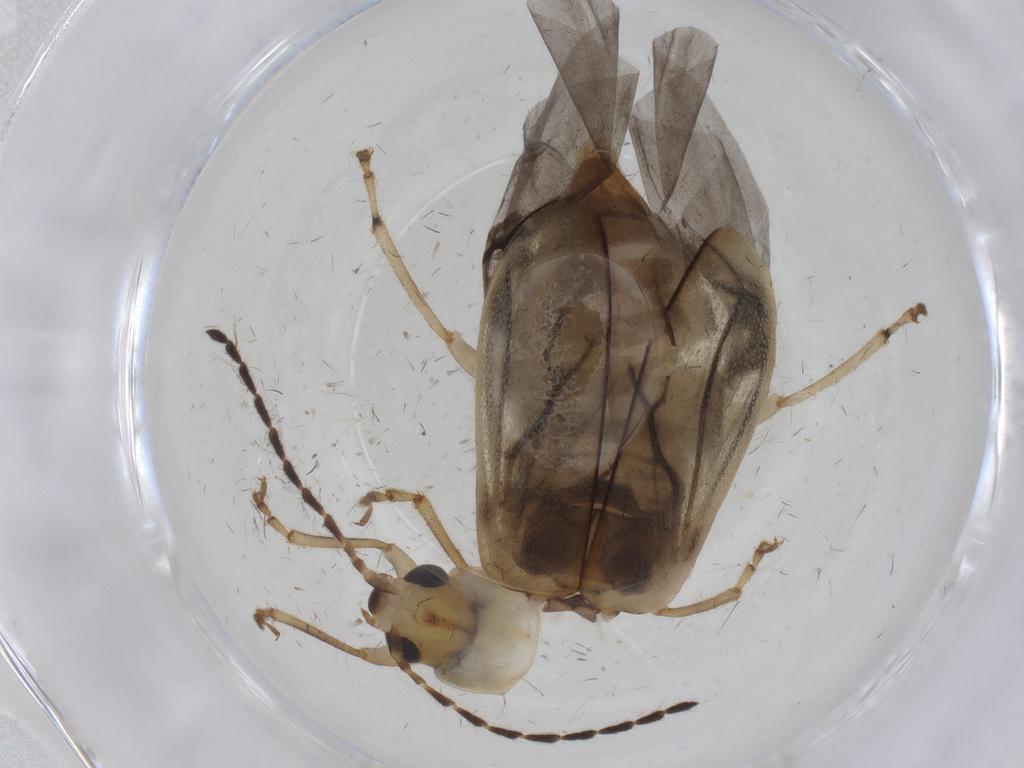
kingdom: Animalia
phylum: Arthropoda
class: Insecta
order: Coleoptera
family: Chrysomelidae
